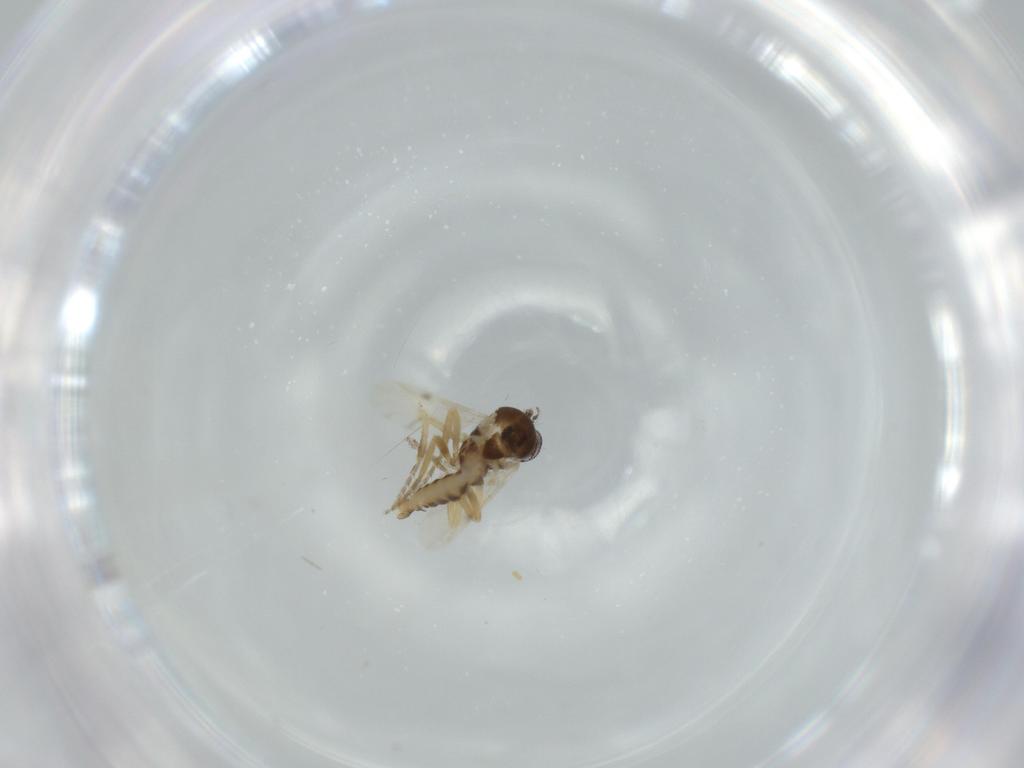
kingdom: Animalia
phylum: Arthropoda
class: Insecta
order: Diptera
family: Ceratopogonidae
